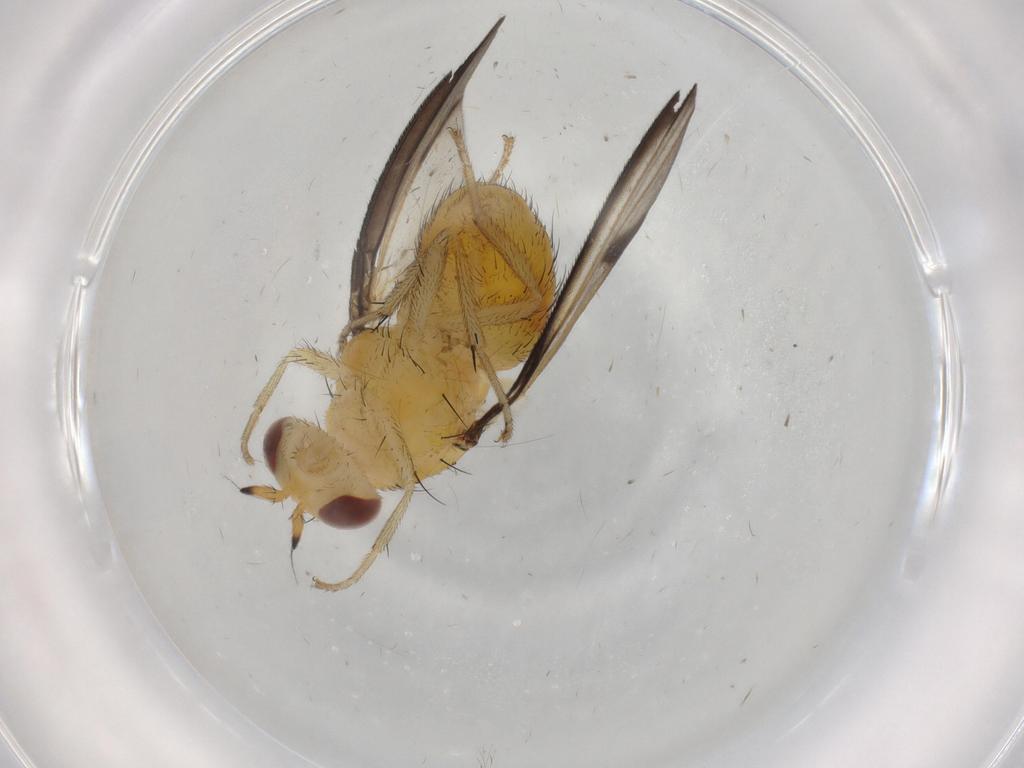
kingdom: Animalia
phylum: Arthropoda
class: Insecta
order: Diptera
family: Lauxaniidae
